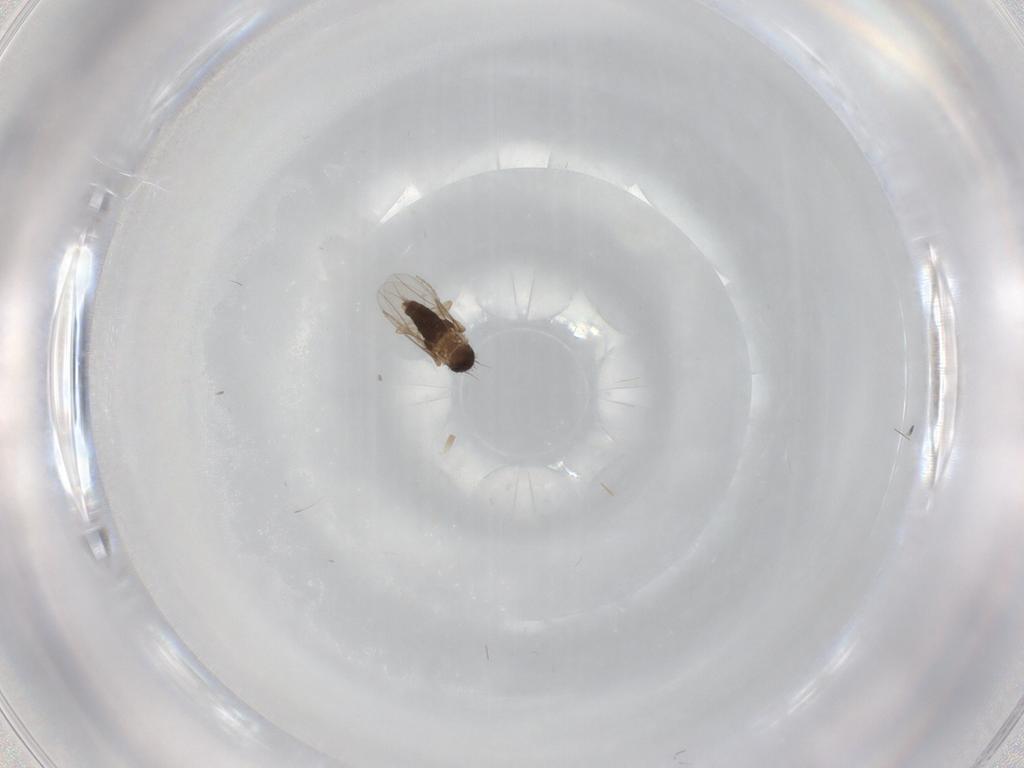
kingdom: Animalia
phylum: Arthropoda
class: Insecta
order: Diptera
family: Phoridae
